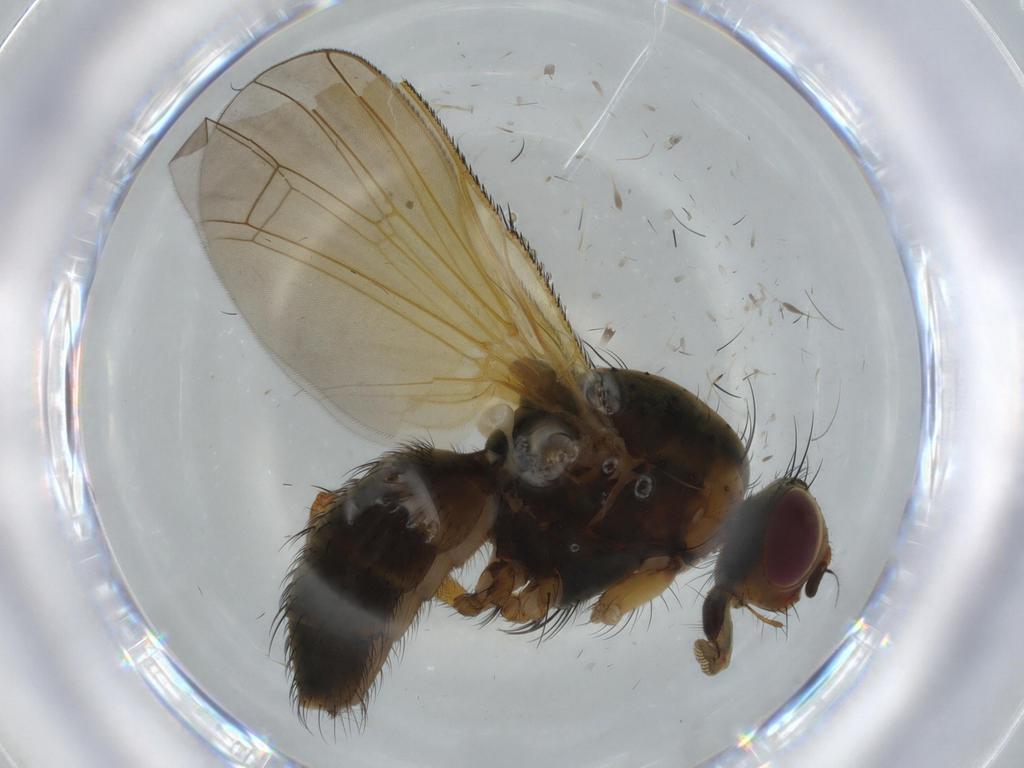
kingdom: Animalia
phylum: Arthropoda
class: Insecta
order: Diptera
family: Anthomyiidae
